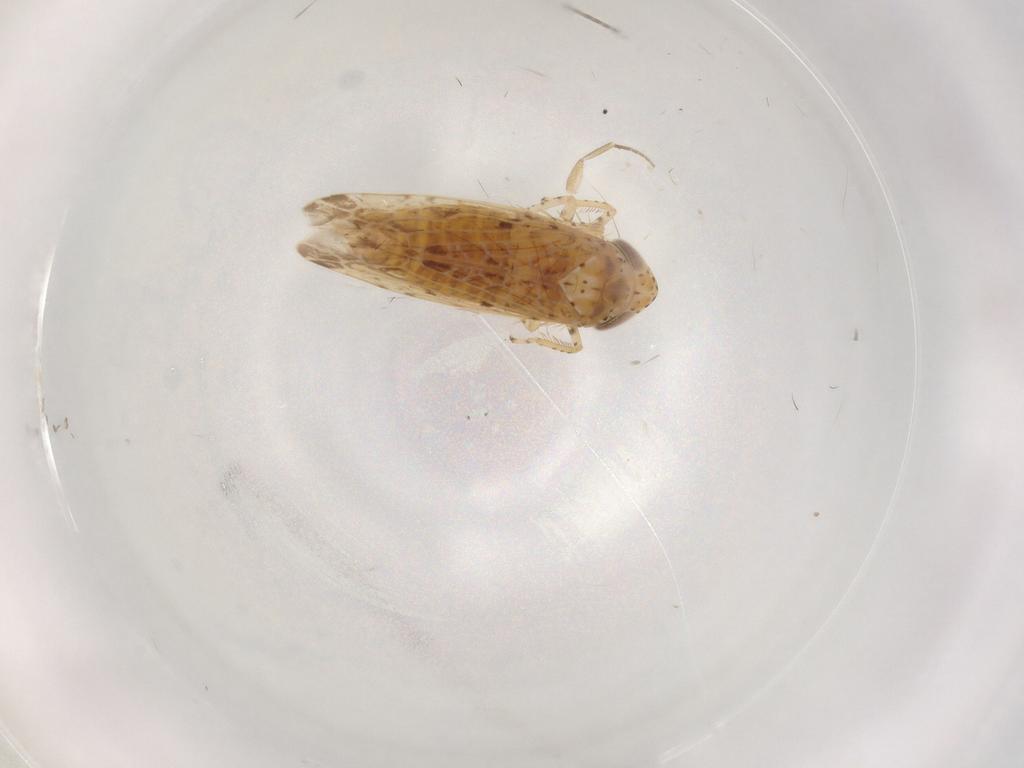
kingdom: Animalia
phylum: Arthropoda
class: Insecta
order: Hemiptera
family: Cicadellidae
